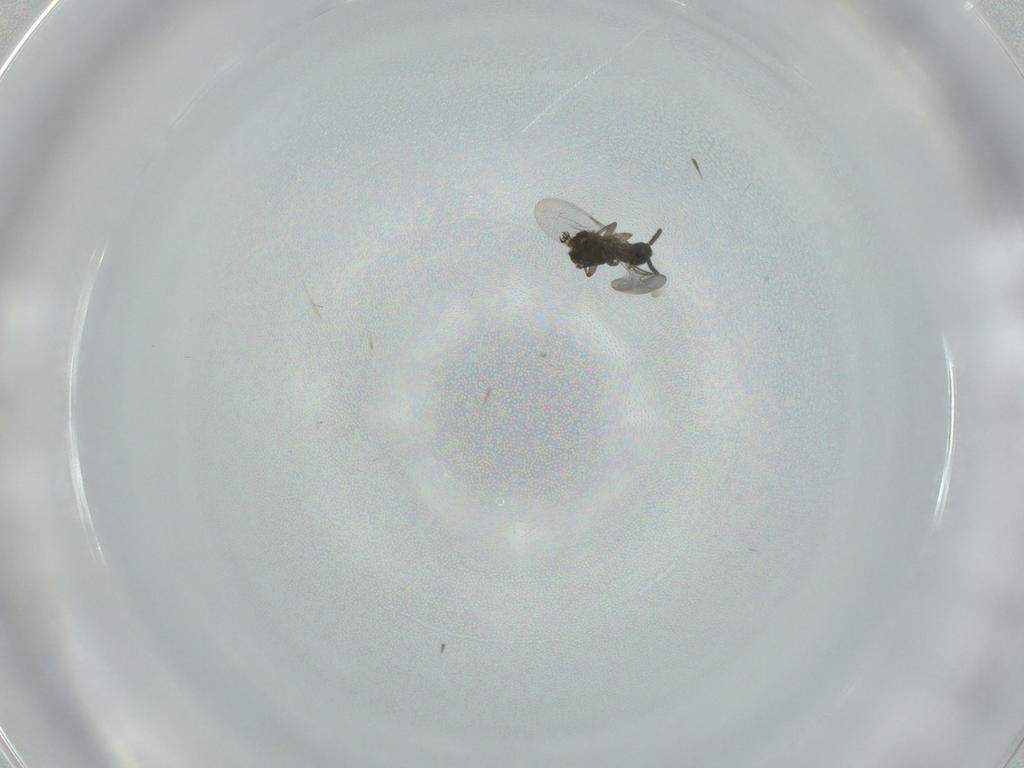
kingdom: Animalia
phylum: Arthropoda
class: Insecta
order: Diptera
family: Scatopsidae
